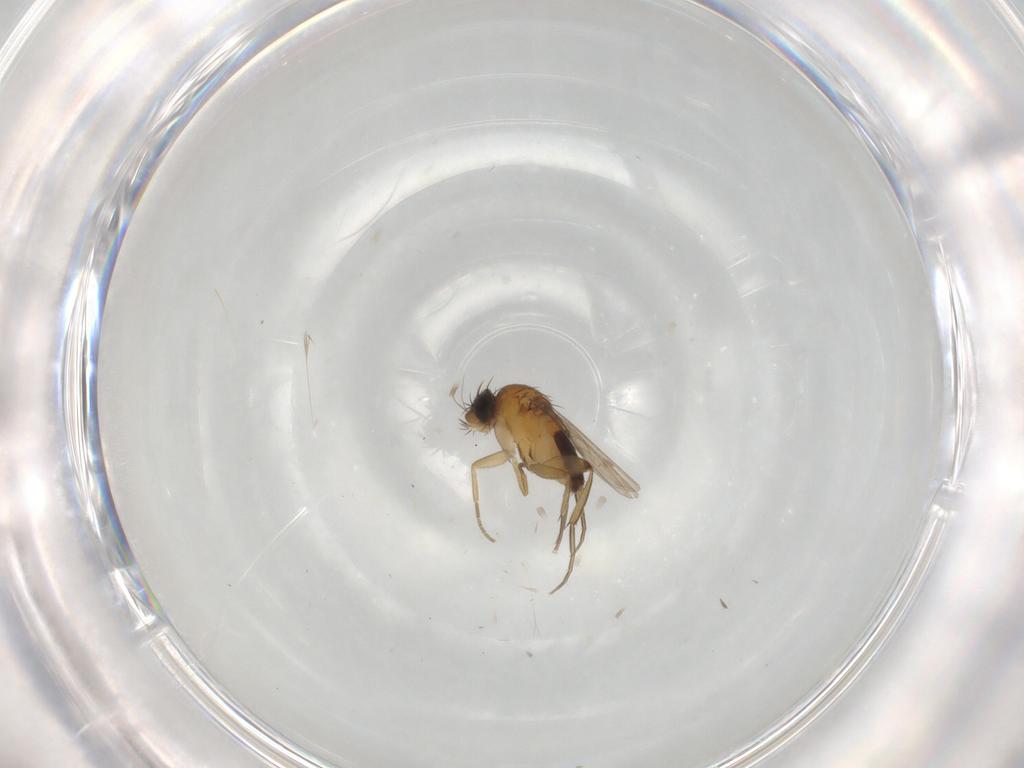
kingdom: Animalia
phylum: Arthropoda
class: Insecta
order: Diptera
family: Phoridae
